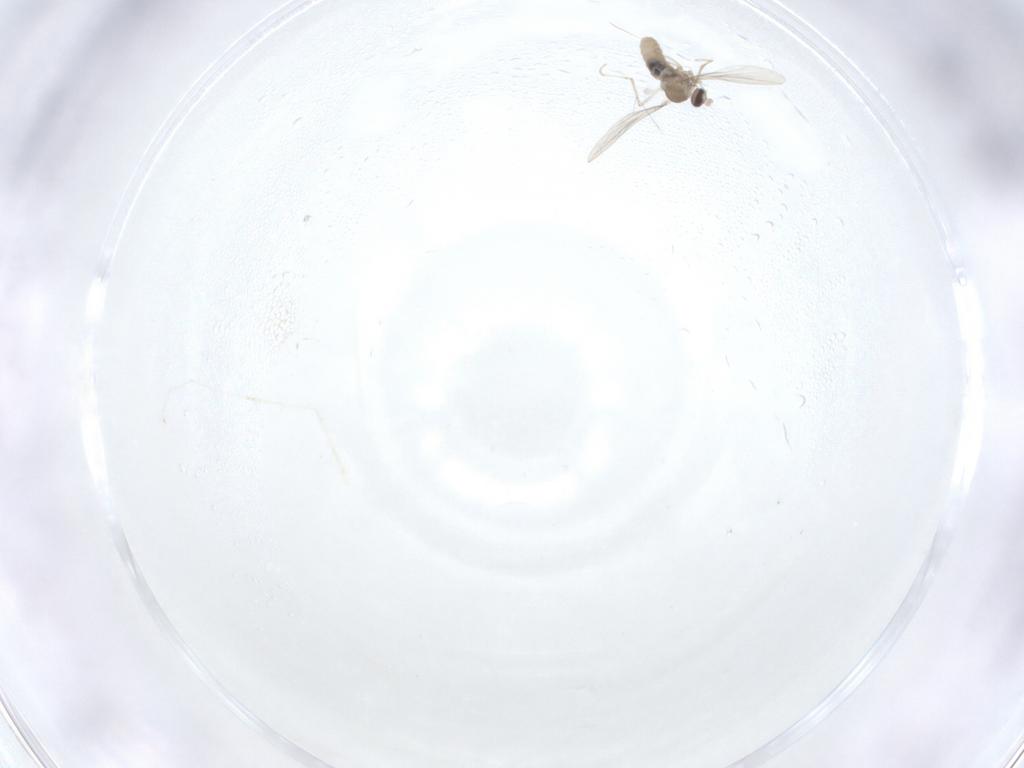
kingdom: Animalia
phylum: Arthropoda
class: Insecta
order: Diptera
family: Cecidomyiidae
